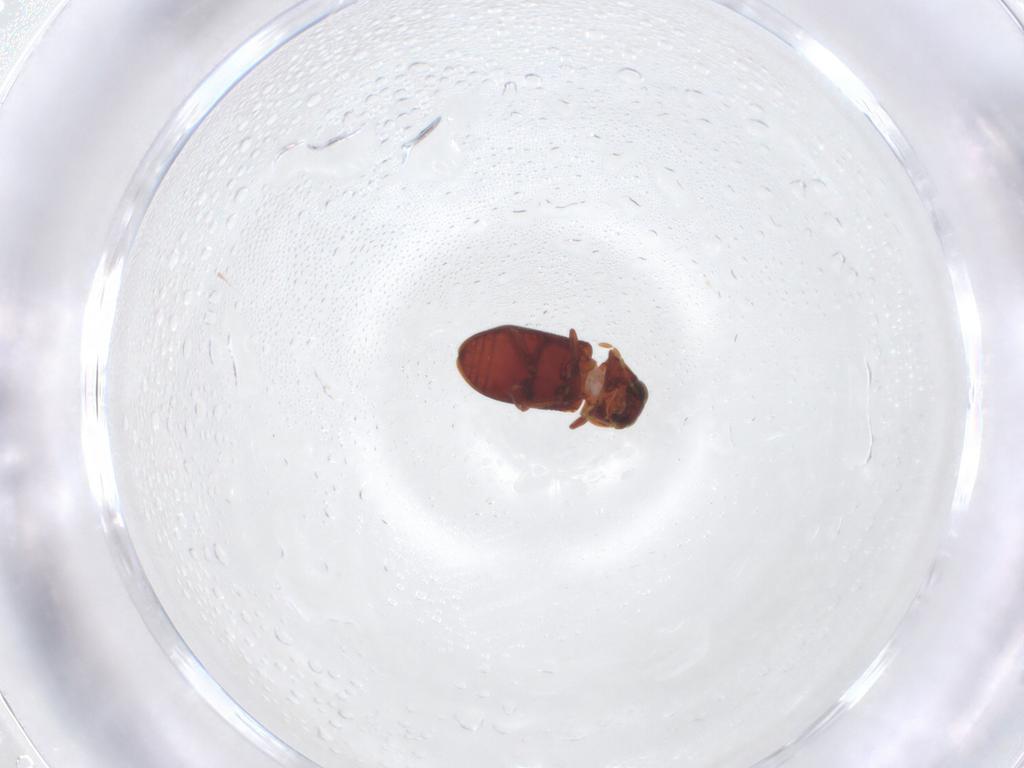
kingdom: Animalia
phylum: Arthropoda
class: Insecta
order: Coleoptera
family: Ptinidae
